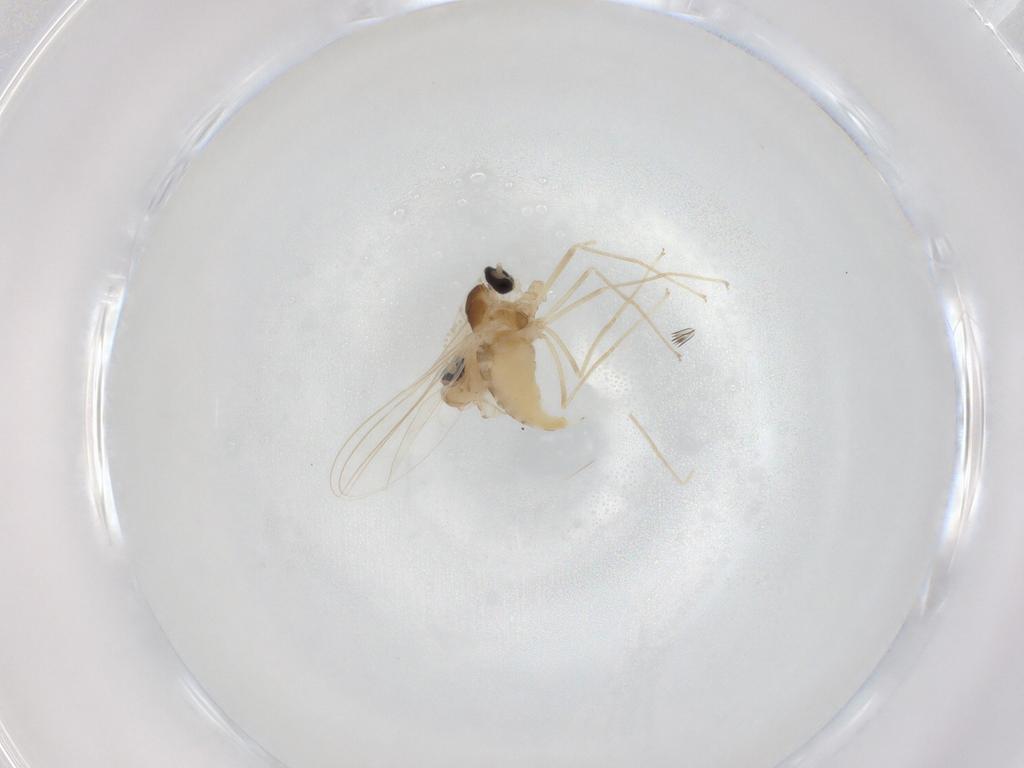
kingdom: Animalia
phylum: Arthropoda
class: Insecta
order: Diptera
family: Cecidomyiidae
